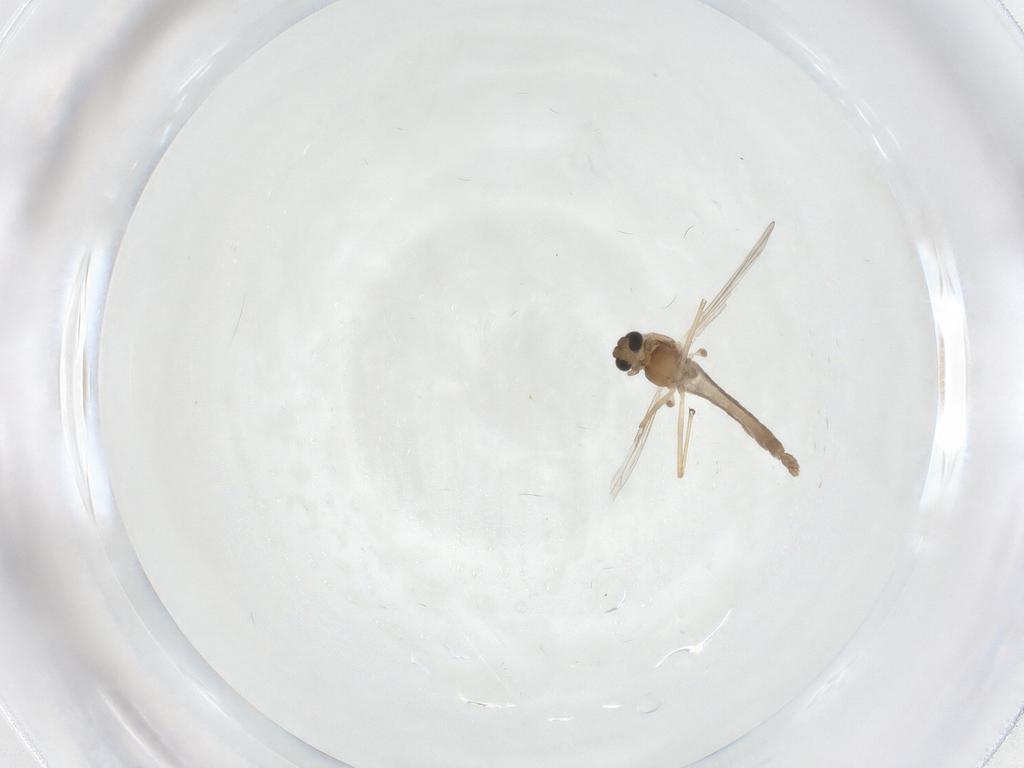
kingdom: Animalia
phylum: Arthropoda
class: Insecta
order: Diptera
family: Chironomidae
